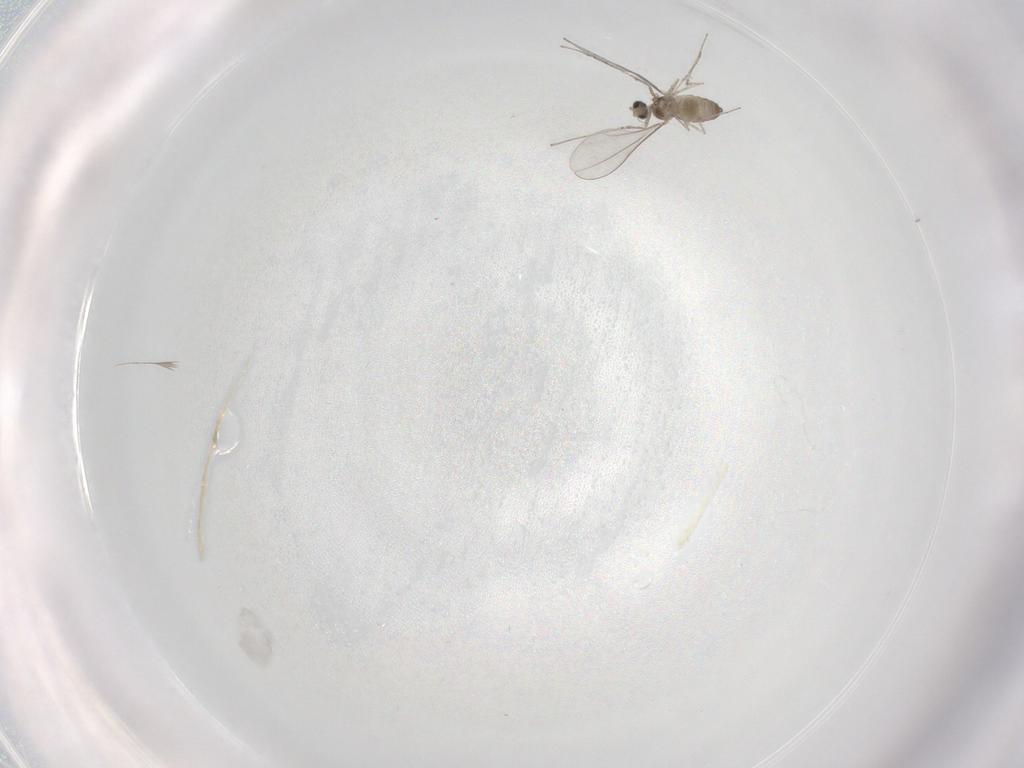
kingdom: Animalia
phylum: Arthropoda
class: Insecta
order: Diptera
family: Cecidomyiidae
